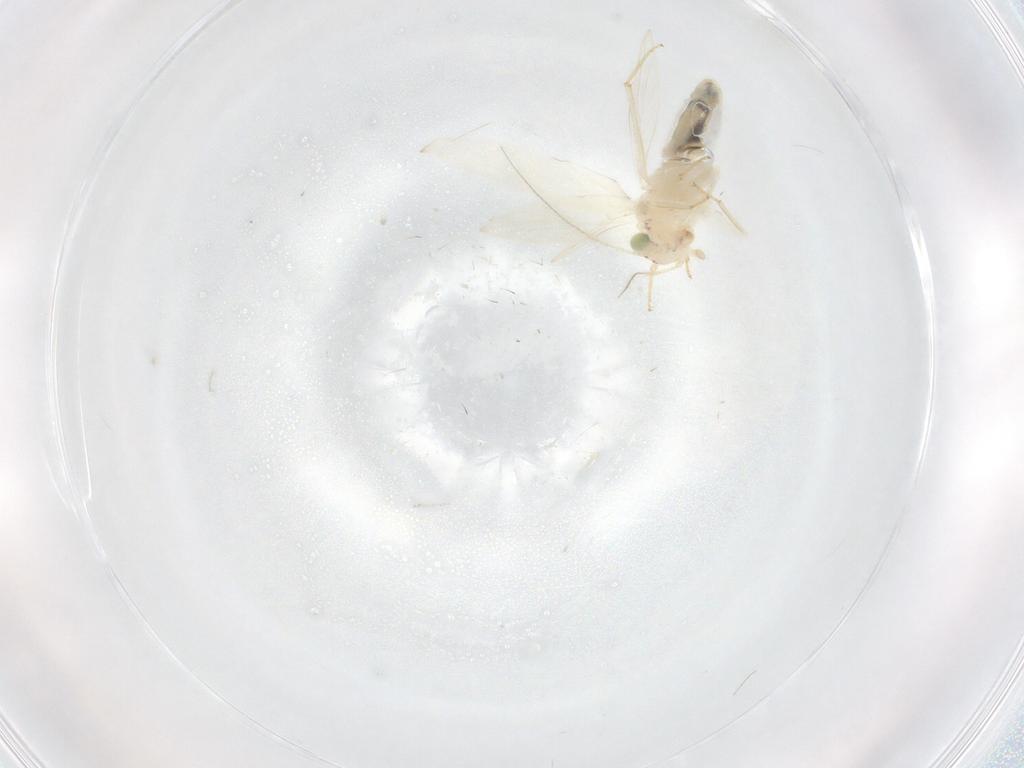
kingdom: Animalia
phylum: Arthropoda
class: Insecta
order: Psocodea
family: Lepidopsocidae
